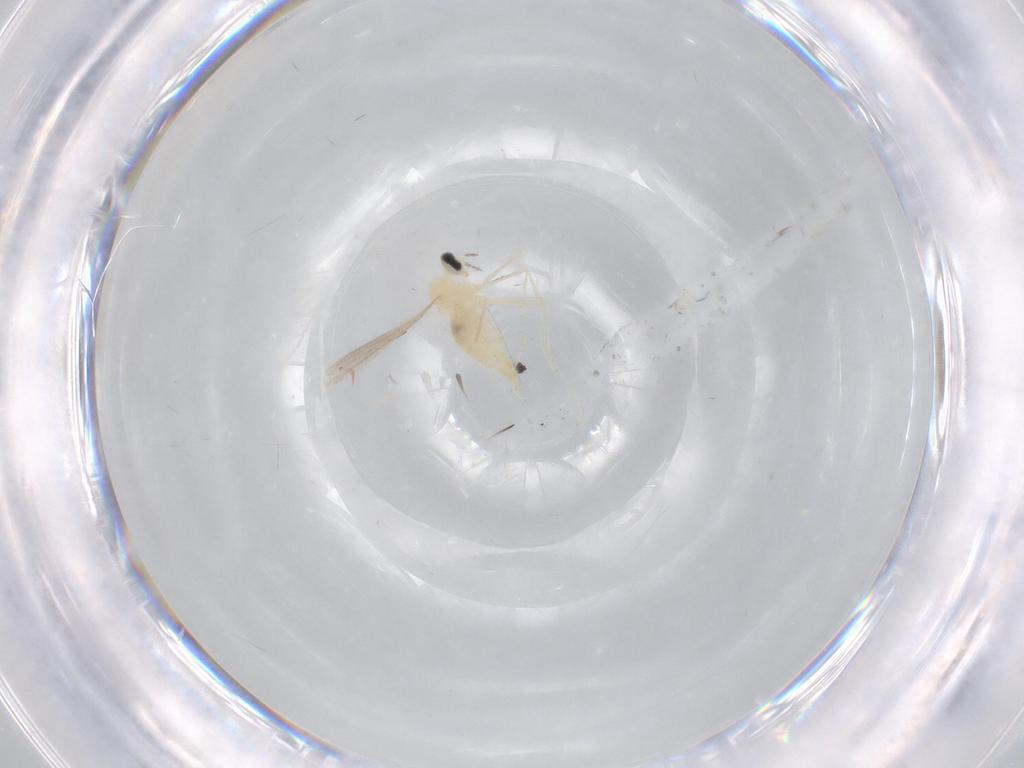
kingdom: Animalia
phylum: Arthropoda
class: Insecta
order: Diptera
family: Cecidomyiidae
